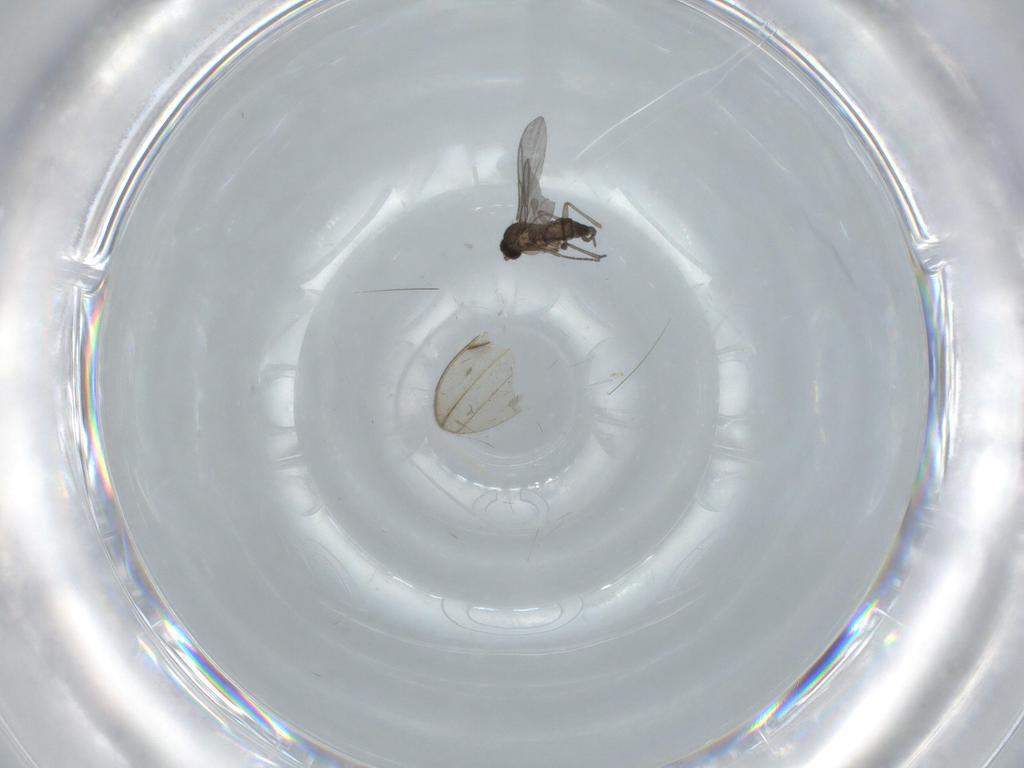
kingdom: Animalia
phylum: Arthropoda
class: Insecta
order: Diptera
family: Drosophilidae
